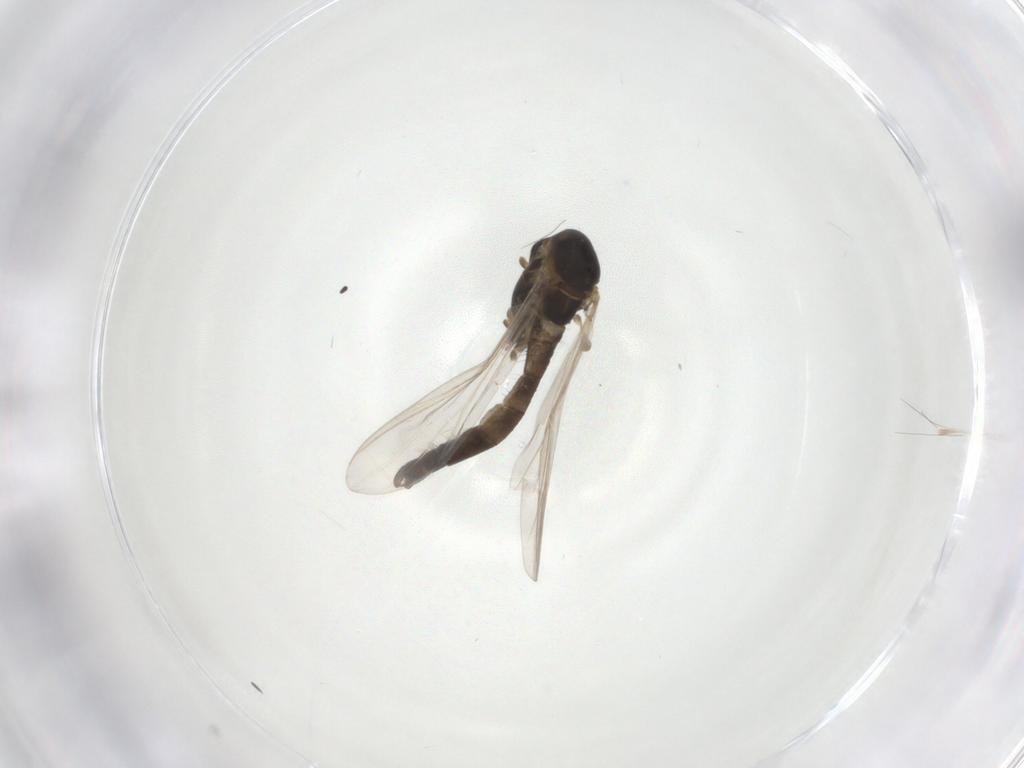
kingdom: Animalia
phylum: Arthropoda
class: Insecta
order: Diptera
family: Chironomidae
